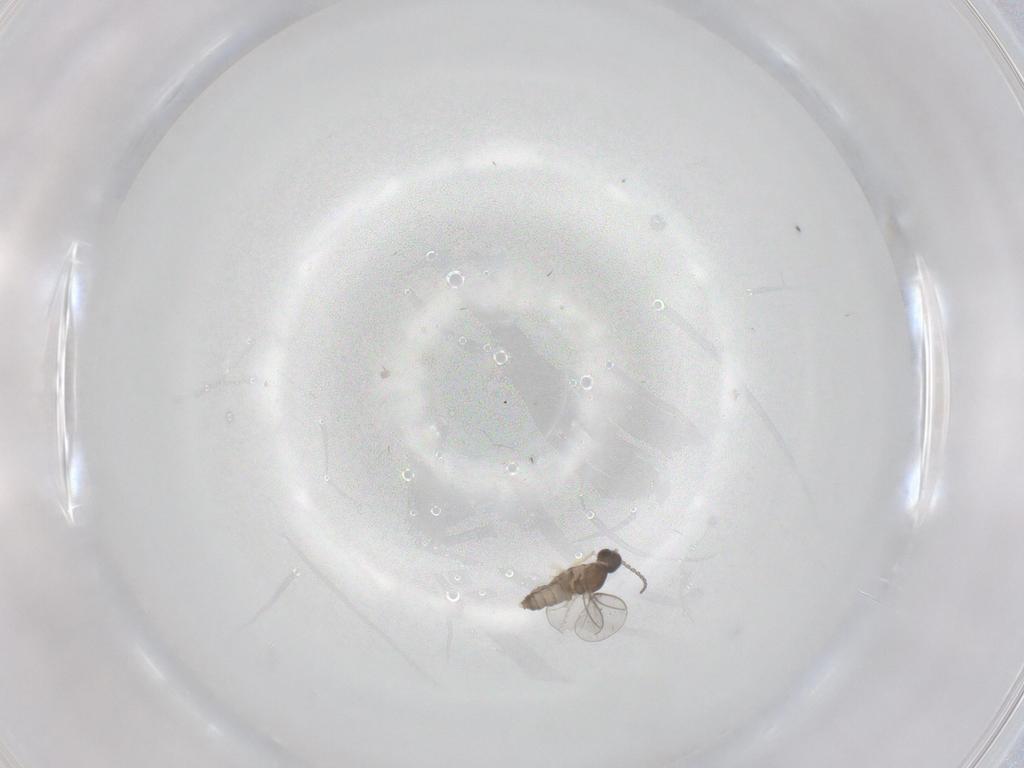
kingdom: Animalia
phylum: Arthropoda
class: Insecta
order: Diptera
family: Cecidomyiidae
